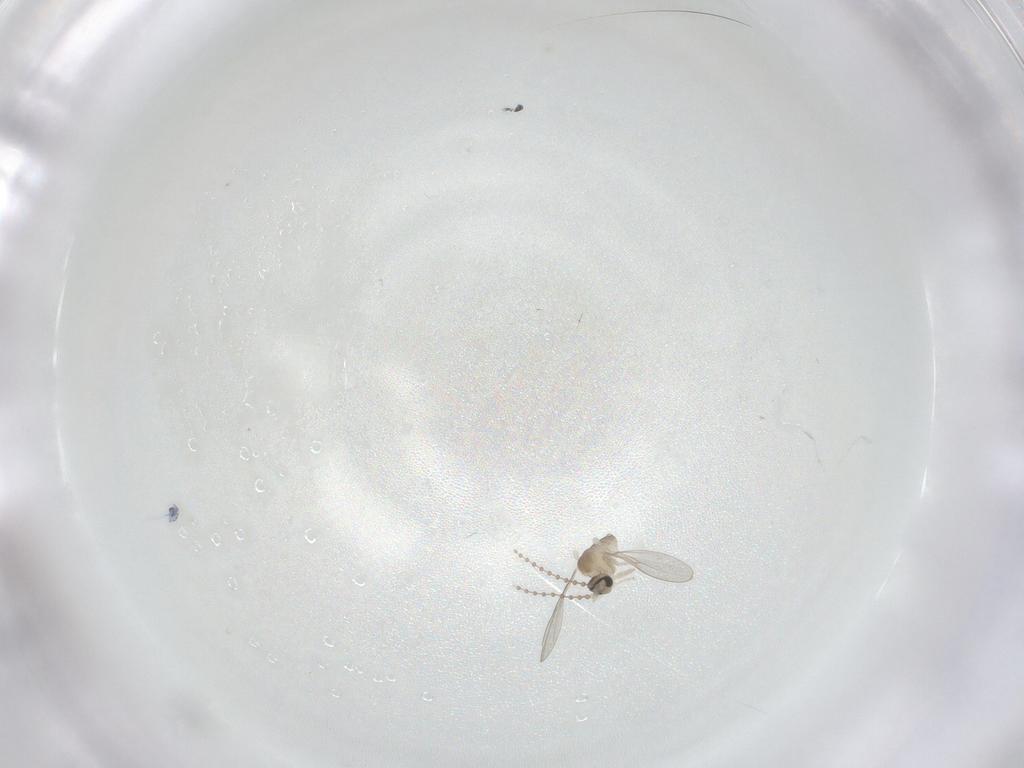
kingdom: Animalia
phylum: Arthropoda
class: Insecta
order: Diptera
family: Cecidomyiidae
